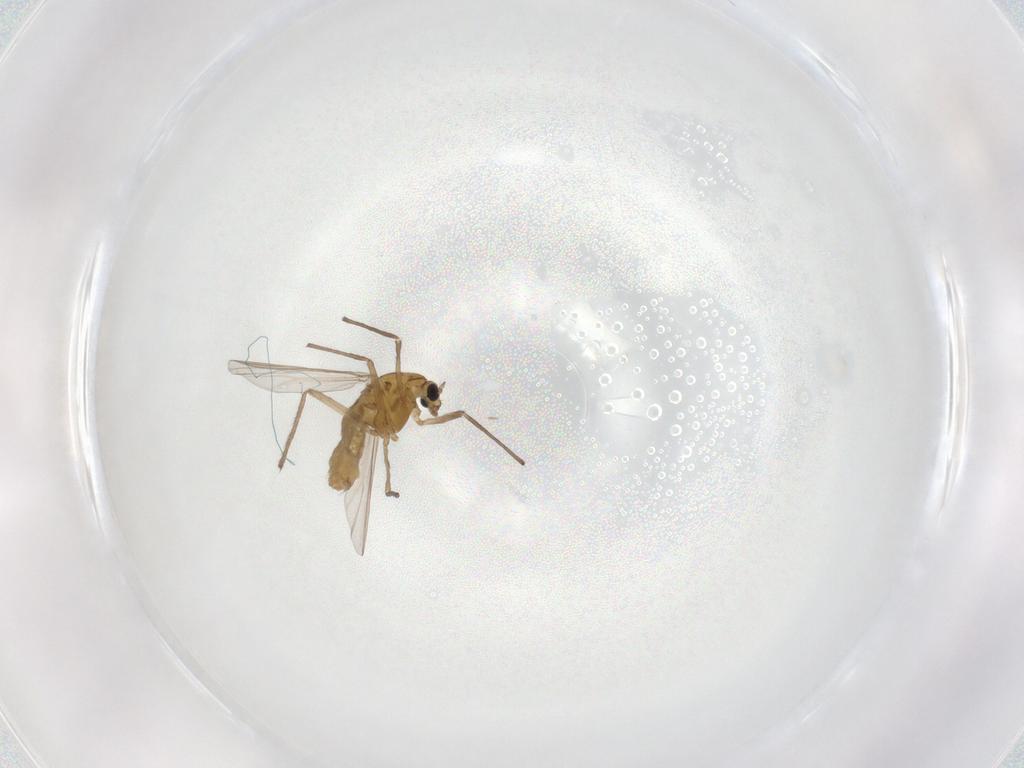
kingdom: Animalia
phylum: Arthropoda
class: Insecta
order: Diptera
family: Chironomidae
